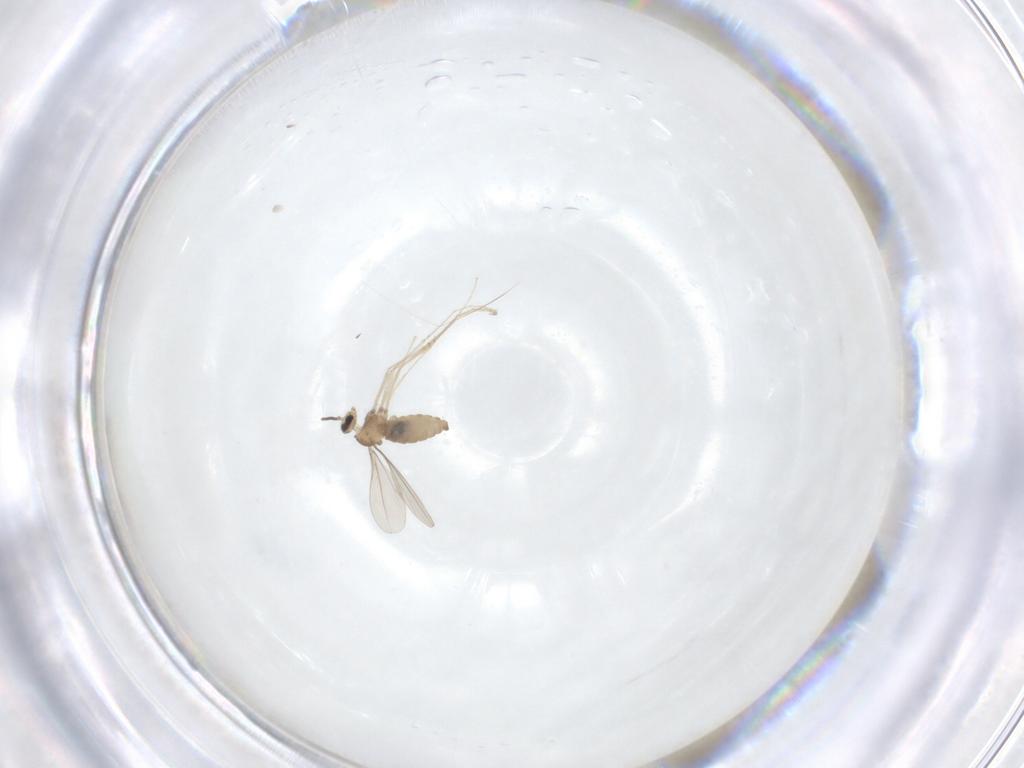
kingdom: Animalia
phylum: Arthropoda
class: Insecta
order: Diptera
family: Cecidomyiidae
